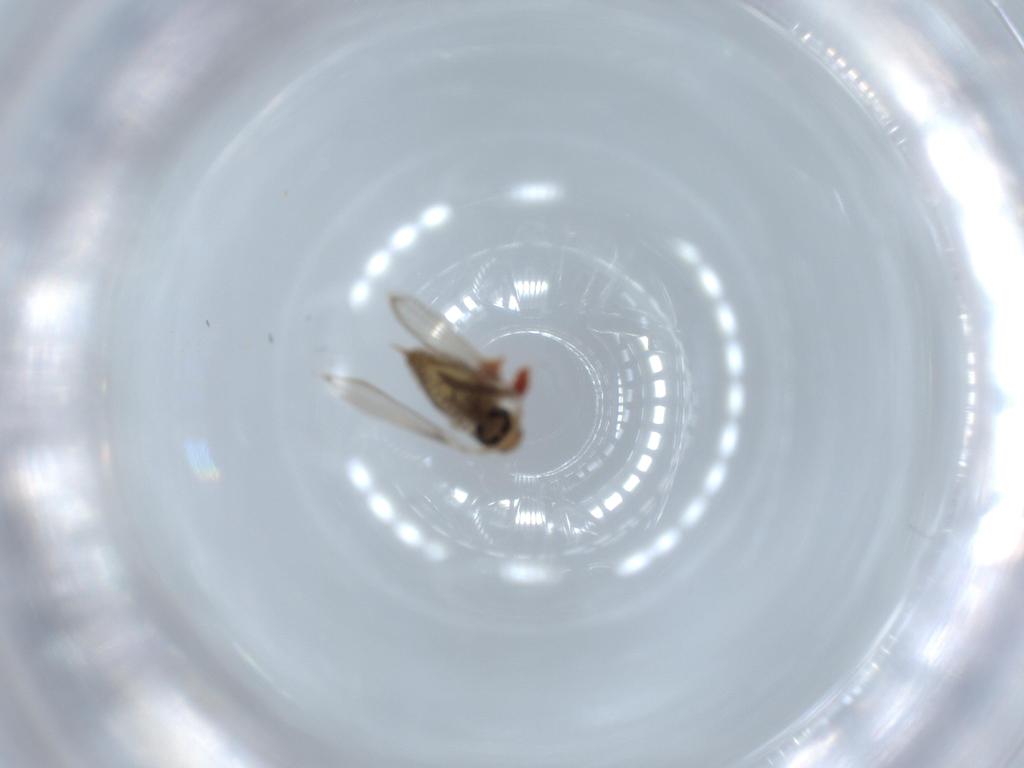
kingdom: Animalia
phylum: Arthropoda
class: Insecta
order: Diptera
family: Psychodidae
